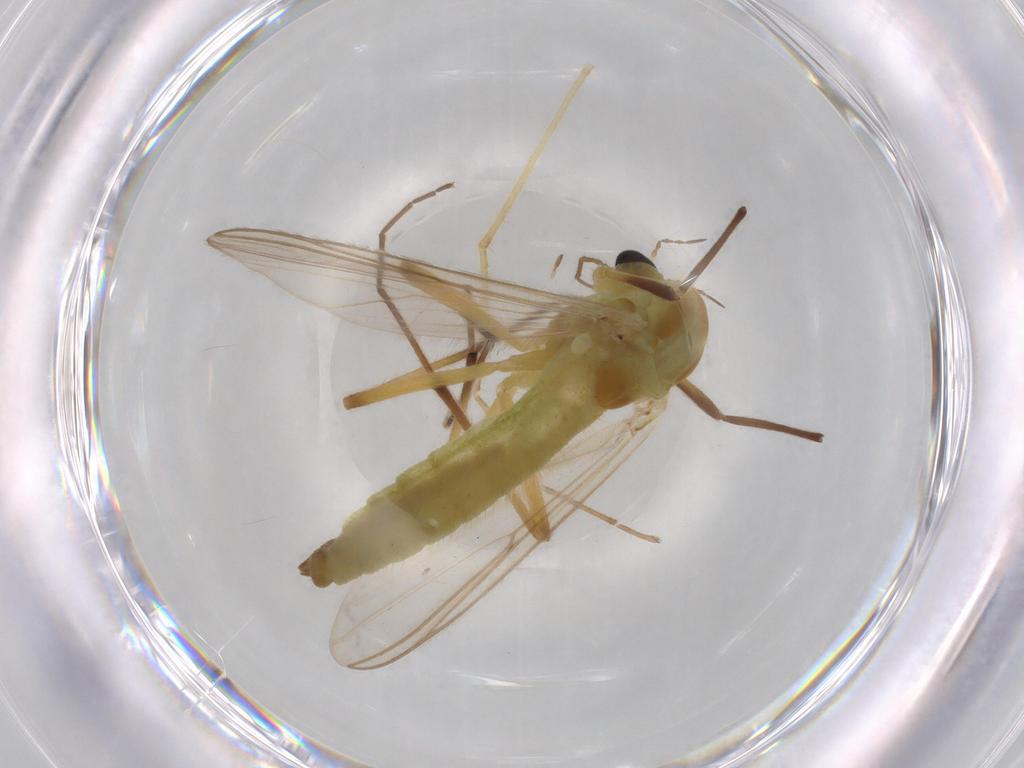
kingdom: Animalia
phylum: Arthropoda
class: Insecta
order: Diptera
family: Chironomidae
